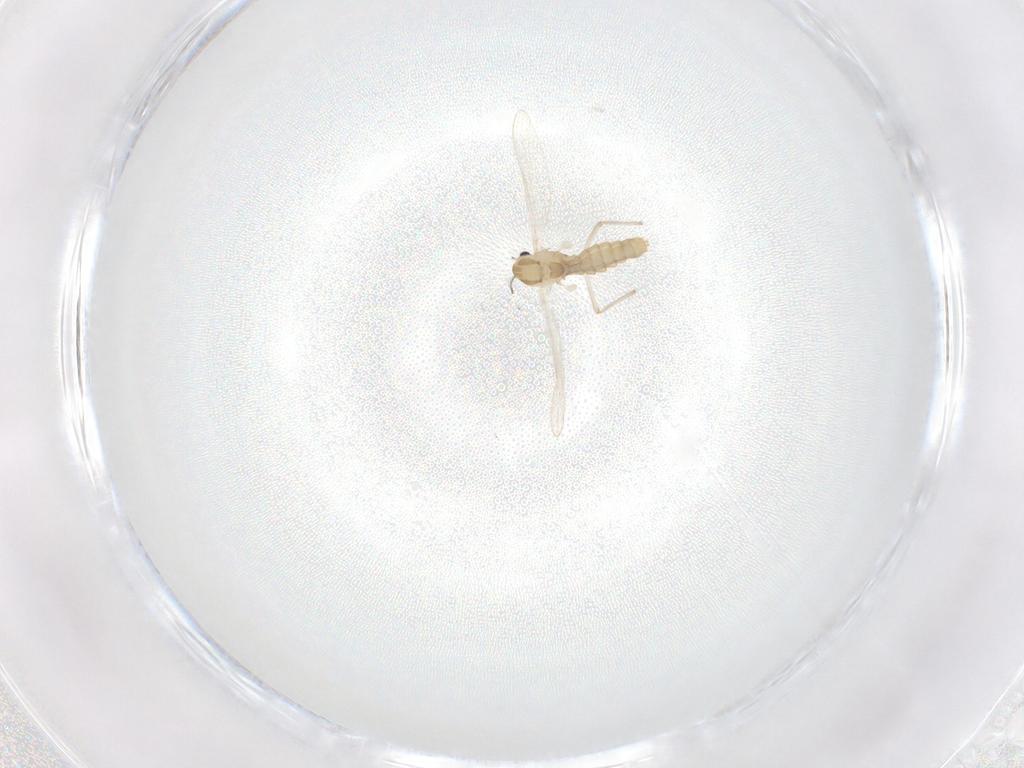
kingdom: Animalia
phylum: Arthropoda
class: Insecta
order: Diptera
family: Chironomidae
